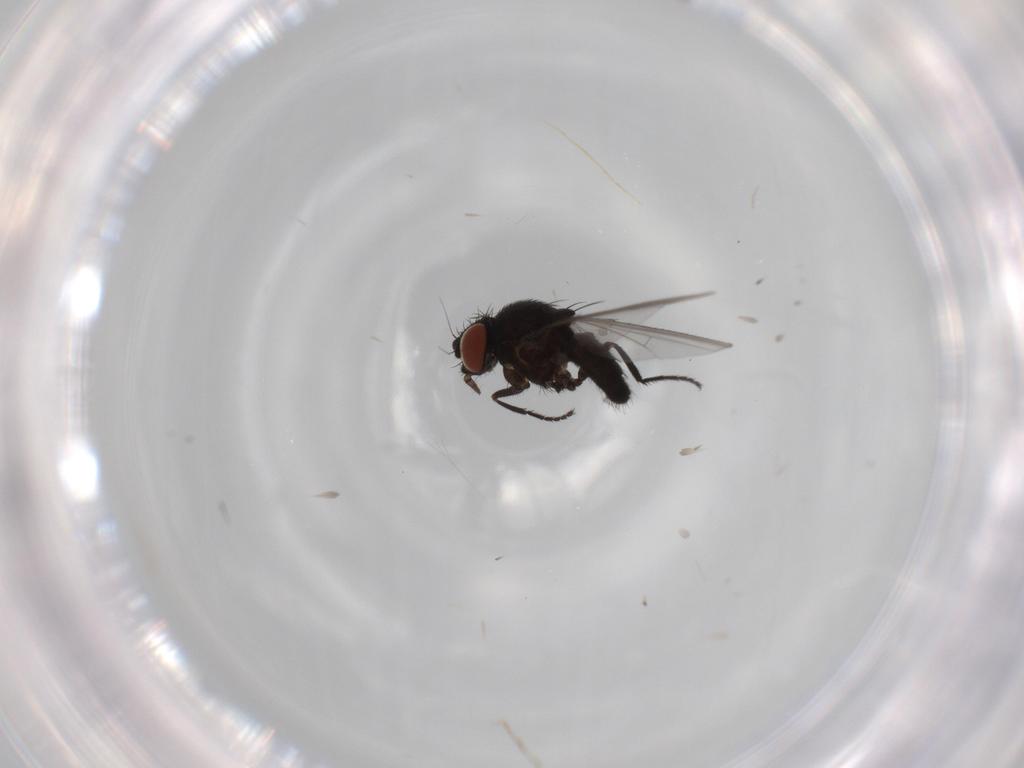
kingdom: Animalia
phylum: Arthropoda
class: Insecta
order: Diptera
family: Milichiidae
